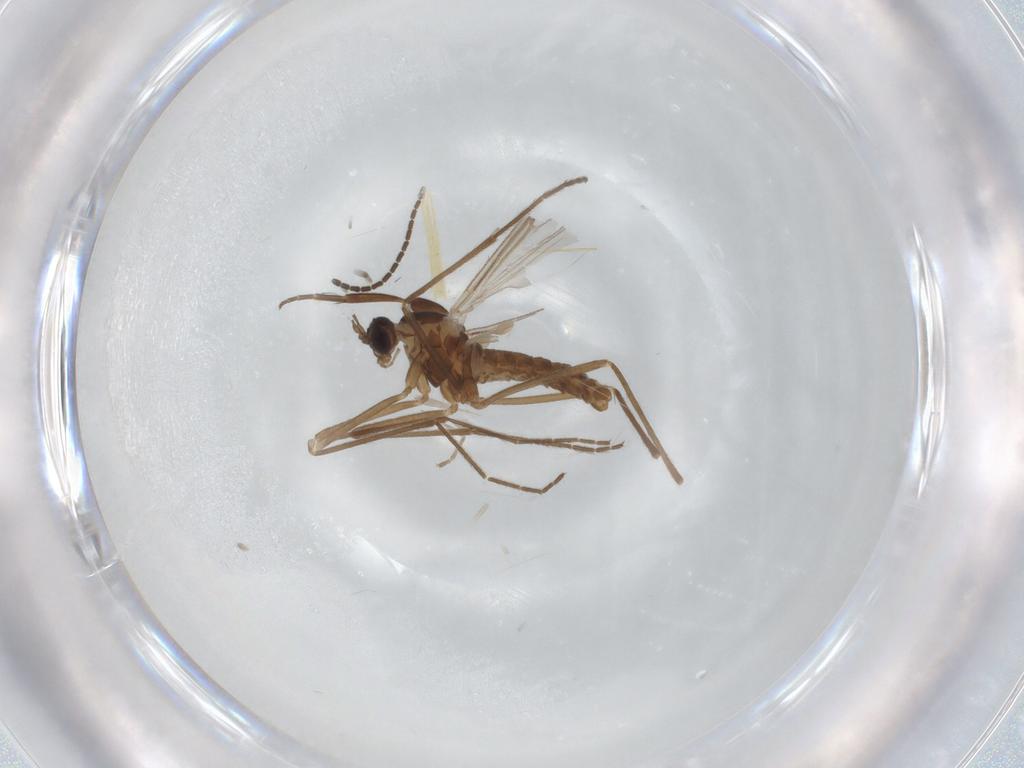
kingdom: Animalia
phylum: Arthropoda
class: Insecta
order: Diptera
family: Cecidomyiidae
